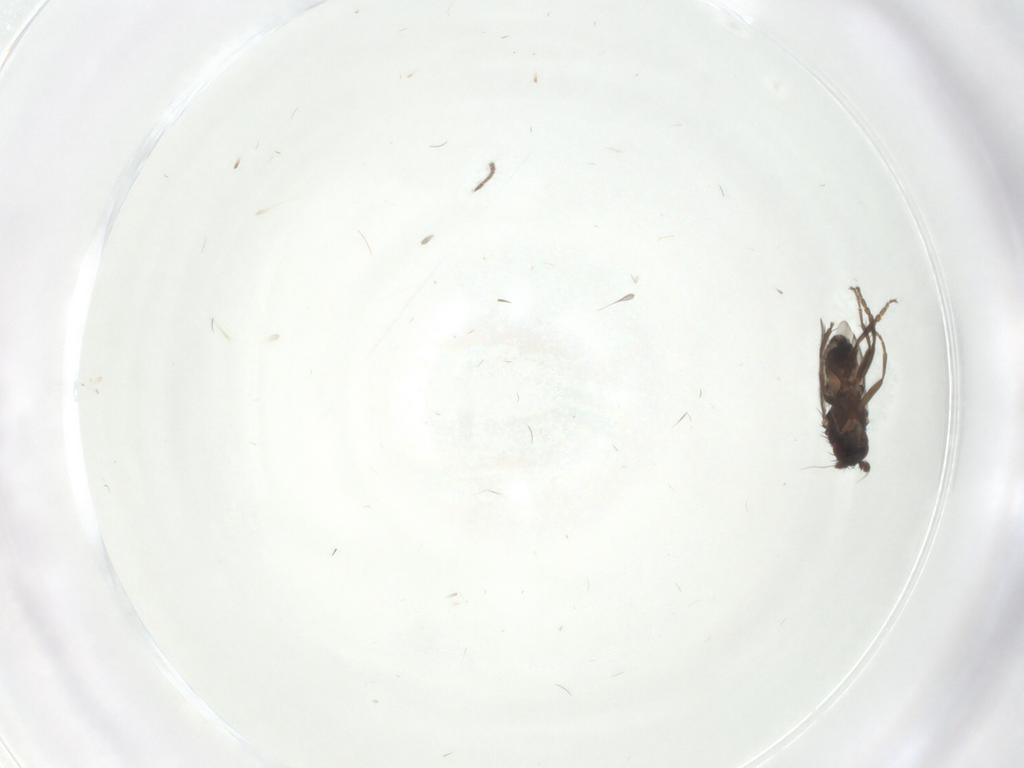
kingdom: Animalia
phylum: Arthropoda
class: Insecta
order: Diptera
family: Sphaeroceridae
